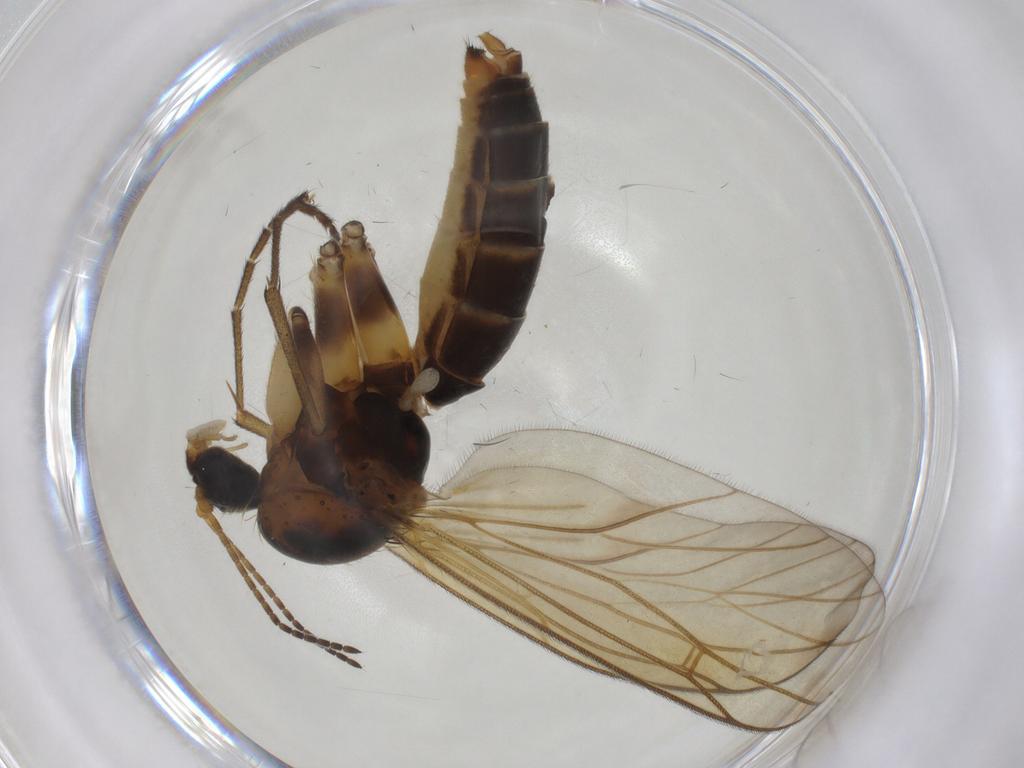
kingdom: Animalia
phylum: Arthropoda
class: Insecta
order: Diptera
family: Mycetophilidae
